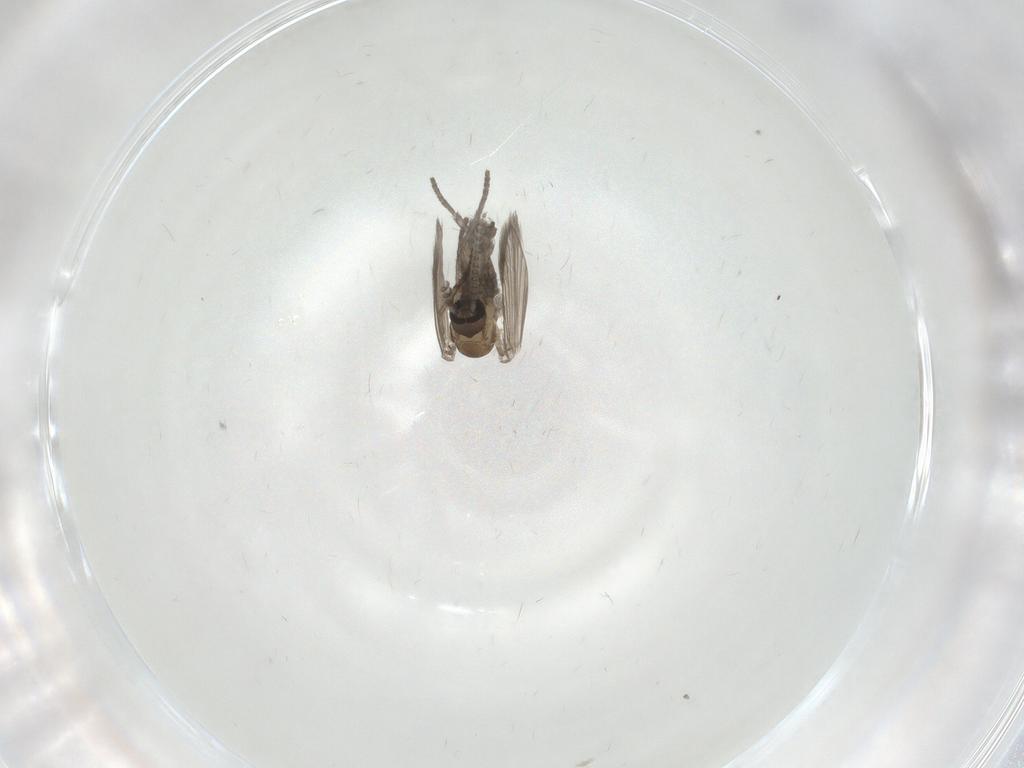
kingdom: Animalia
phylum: Arthropoda
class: Insecta
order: Diptera
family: Psychodidae
